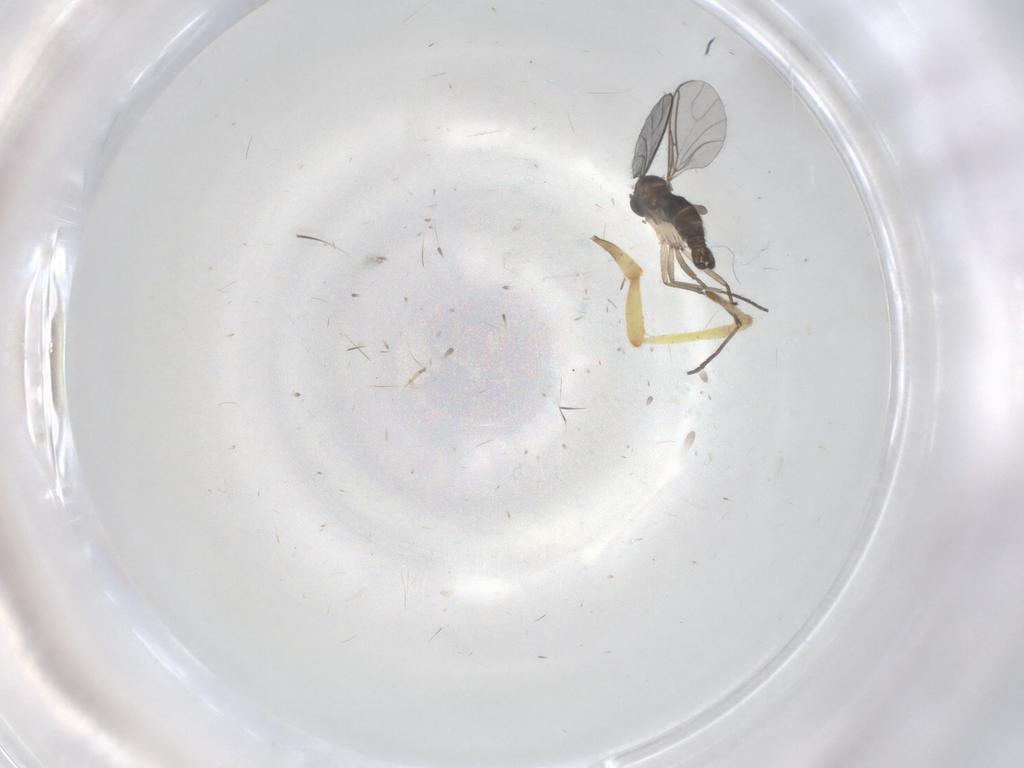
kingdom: Animalia
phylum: Arthropoda
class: Insecta
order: Diptera
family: Sciaridae
